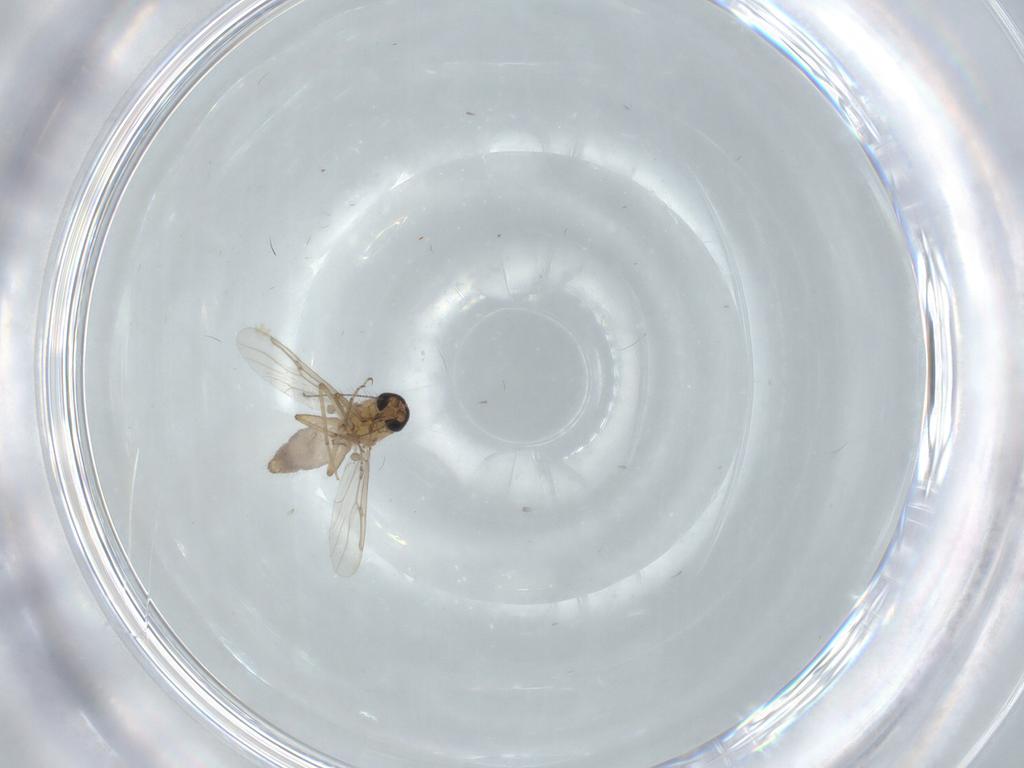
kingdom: Animalia
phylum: Arthropoda
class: Insecta
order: Diptera
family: Ceratopogonidae
